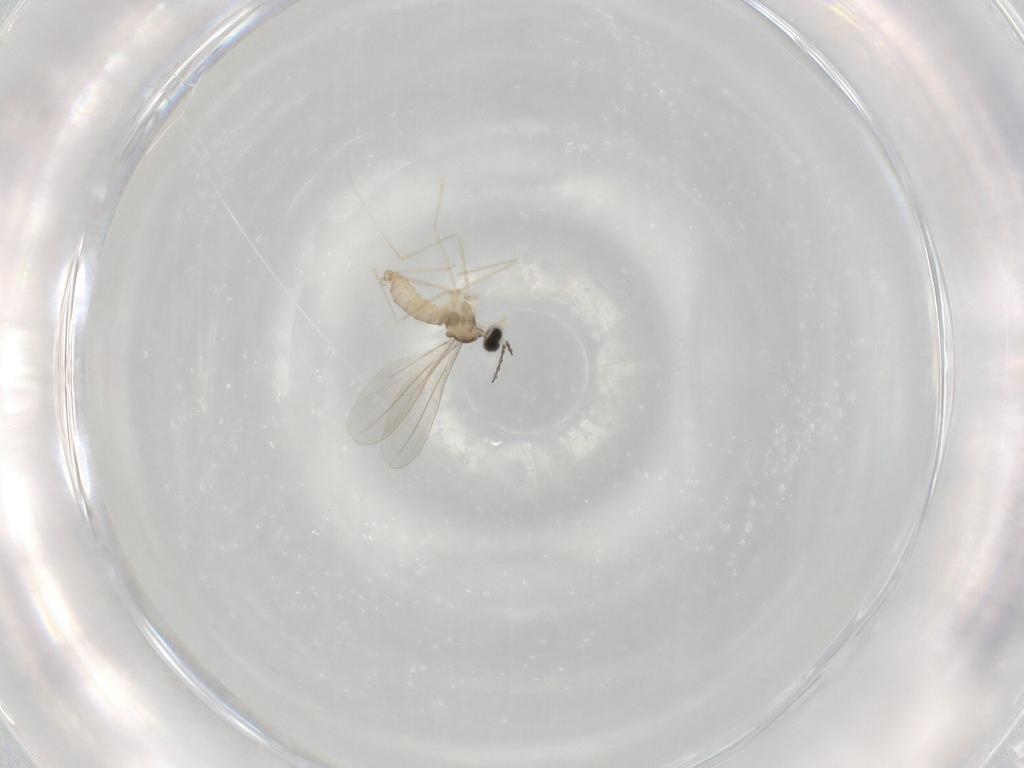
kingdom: Animalia
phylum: Arthropoda
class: Insecta
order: Diptera
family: Cecidomyiidae
